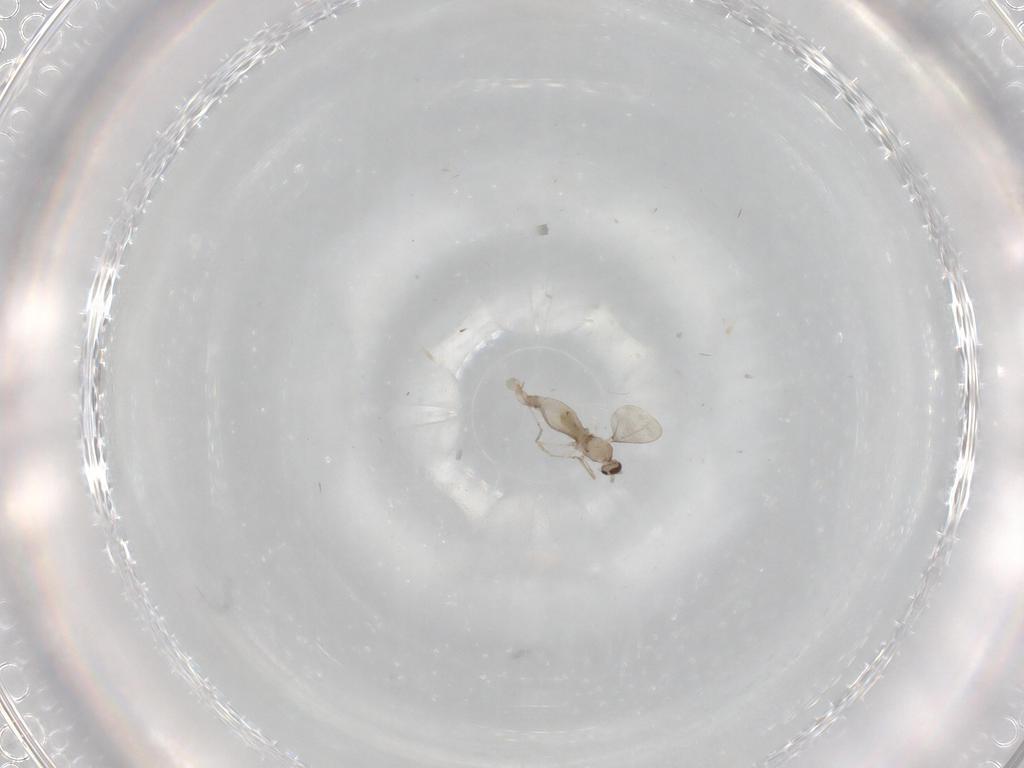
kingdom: Animalia
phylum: Arthropoda
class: Insecta
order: Diptera
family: Cecidomyiidae
